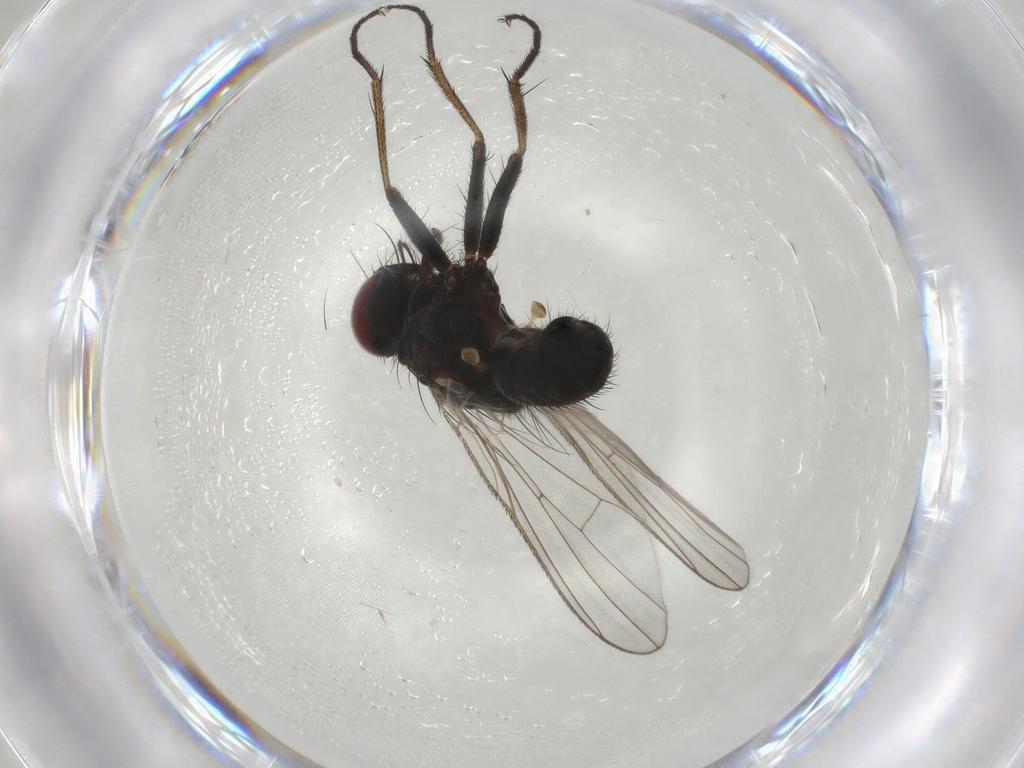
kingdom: Animalia
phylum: Arthropoda
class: Insecta
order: Diptera
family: Muscidae
